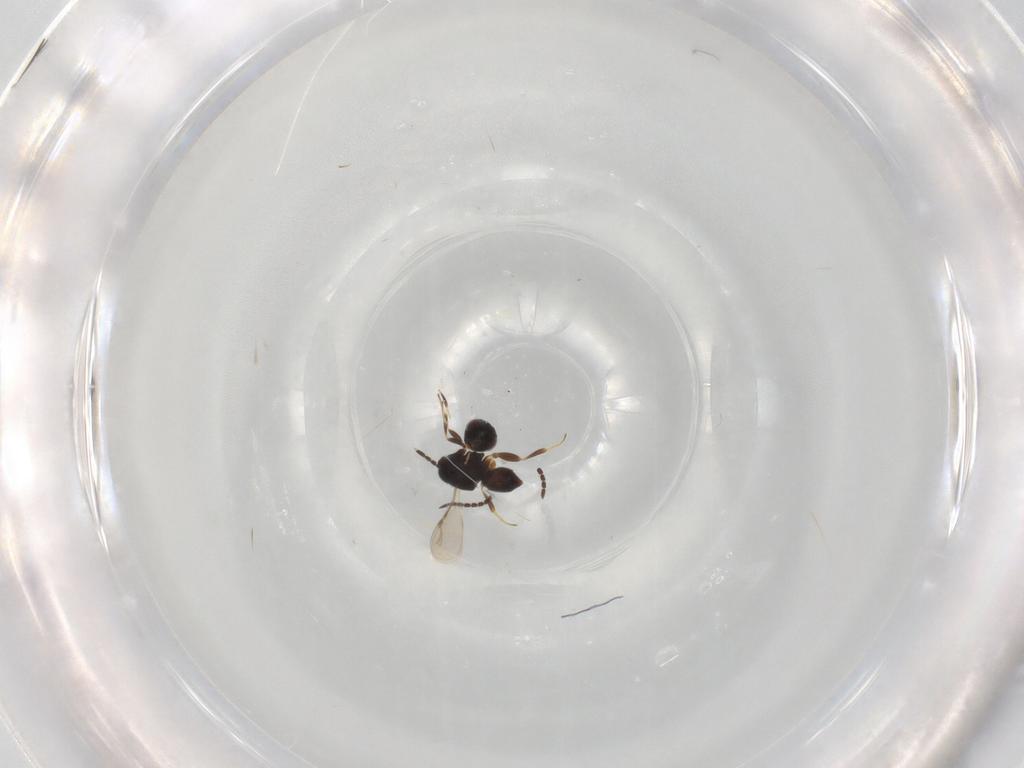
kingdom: Animalia
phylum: Arthropoda
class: Insecta
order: Hymenoptera
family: Ceraphronidae
